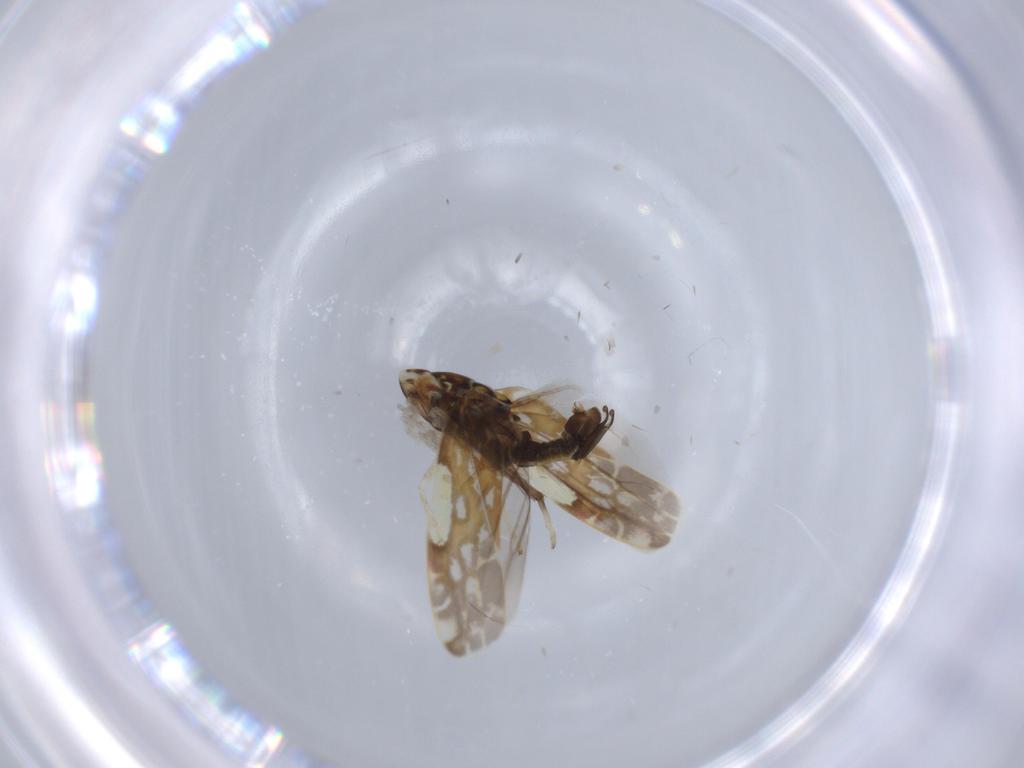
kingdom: Animalia
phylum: Arthropoda
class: Insecta
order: Hemiptera
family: Cicadellidae
